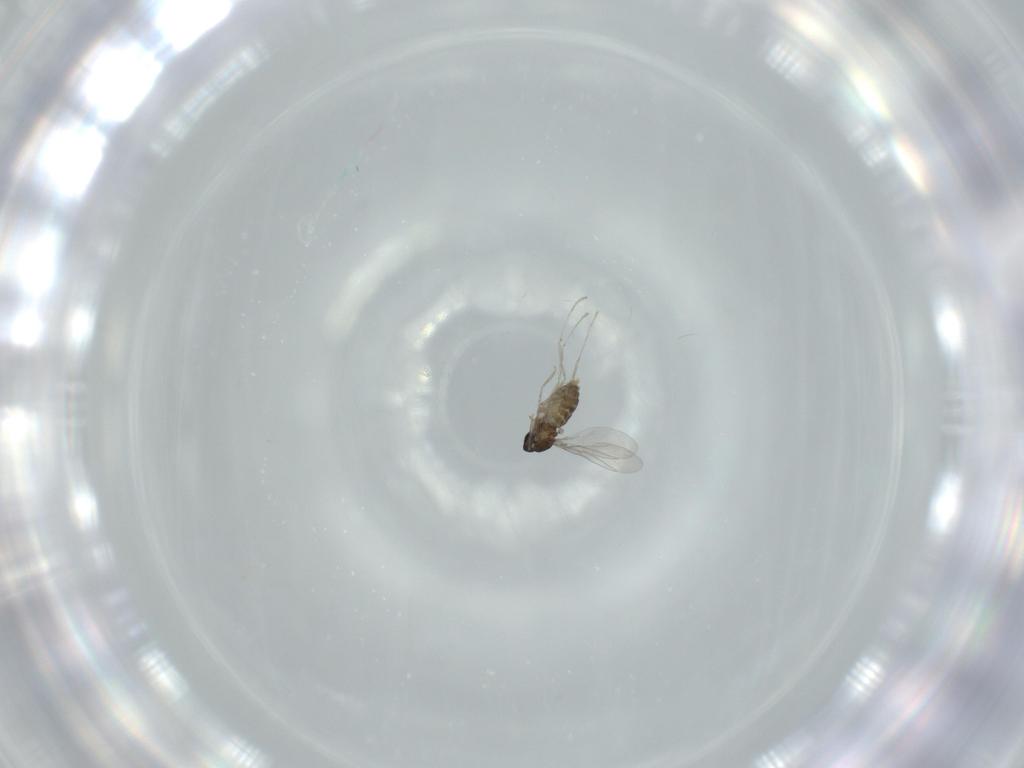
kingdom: Animalia
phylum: Arthropoda
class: Insecta
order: Diptera
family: Cecidomyiidae
